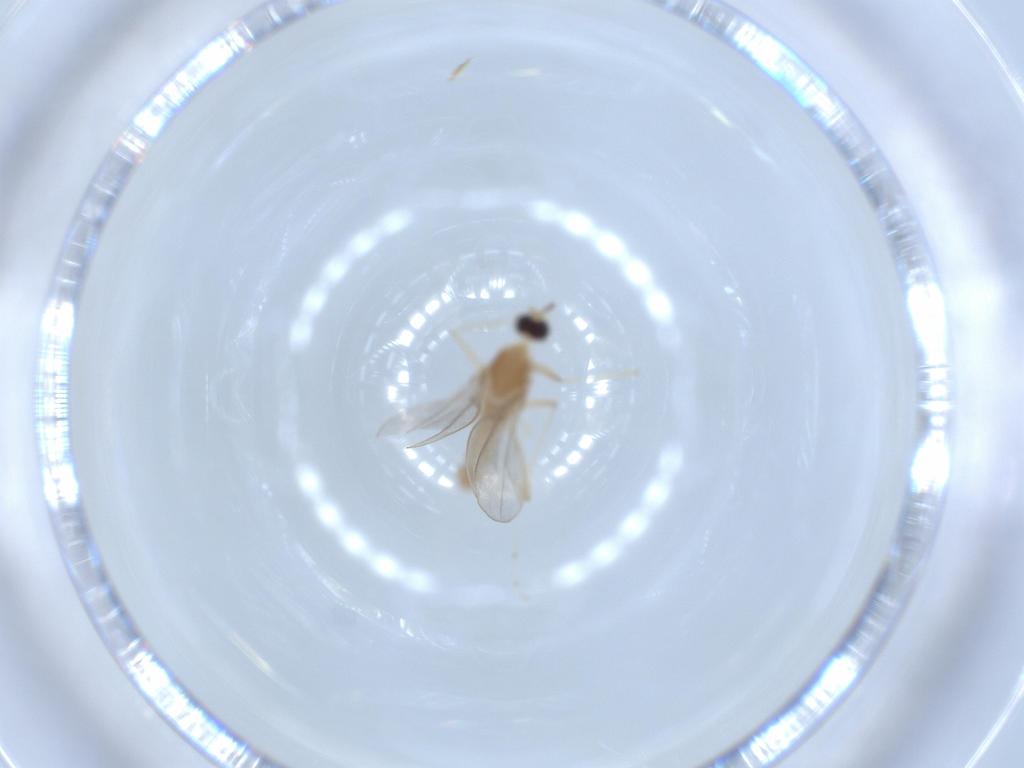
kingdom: Animalia
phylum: Arthropoda
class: Insecta
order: Diptera
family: Cecidomyiidae
